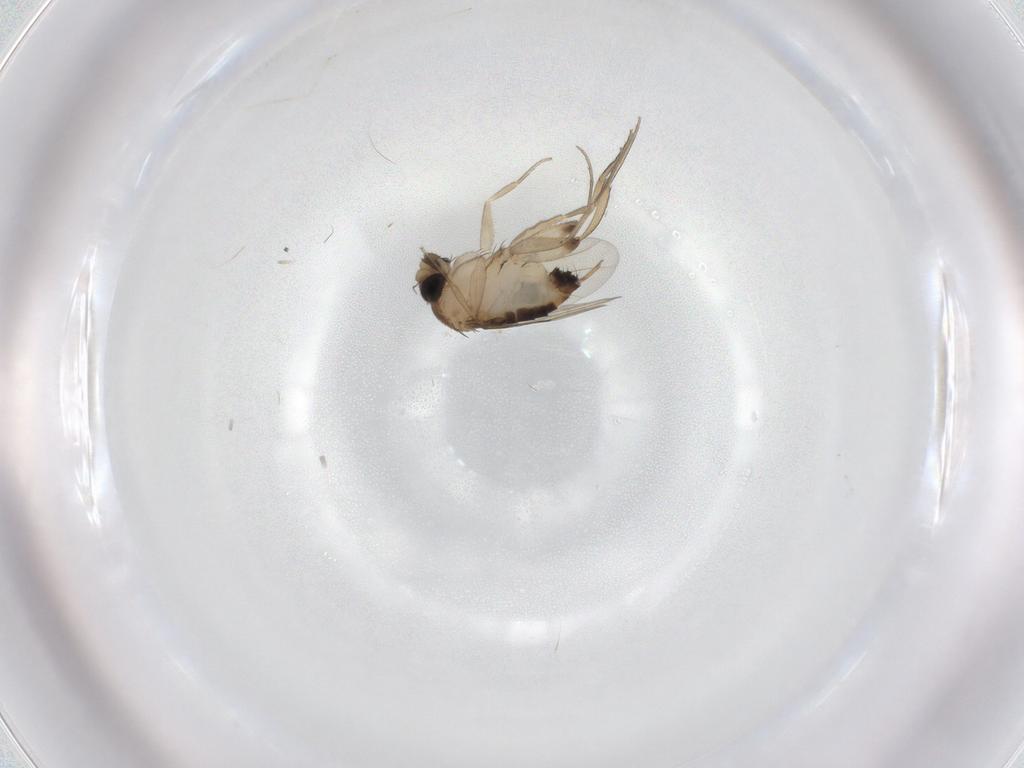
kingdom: Animalia
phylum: Arthropoda
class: Insecta
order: Diptera
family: Phoridae
